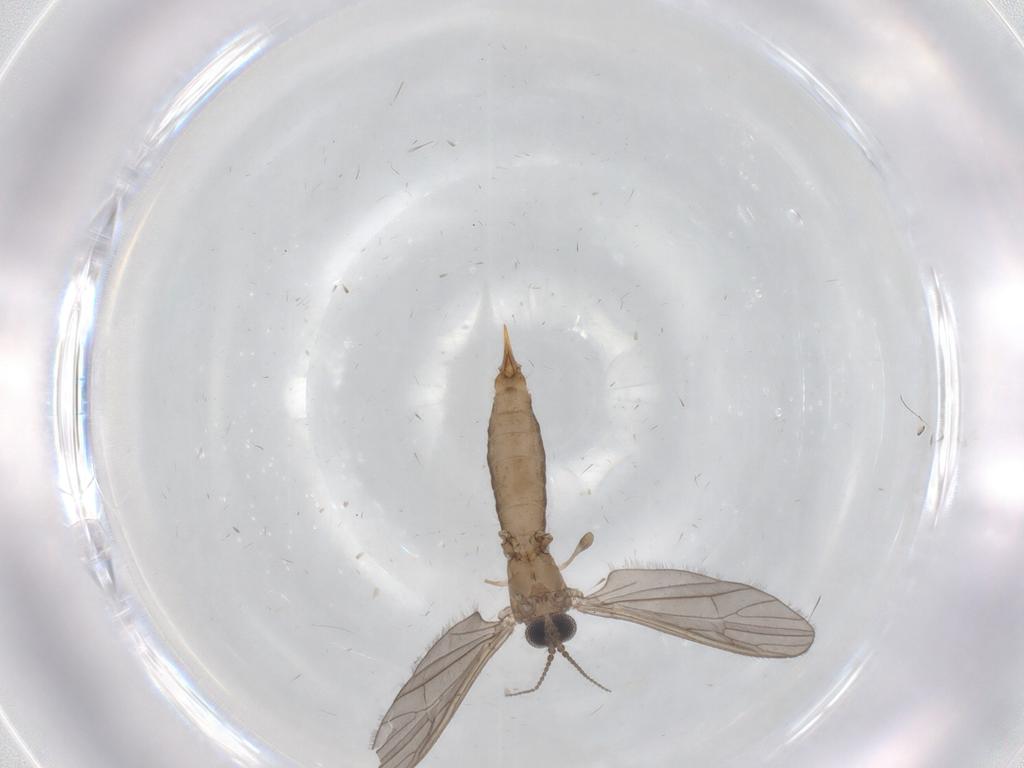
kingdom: Animalia
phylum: Arthropoda
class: Insecta
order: Diptera
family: Limoniidae
